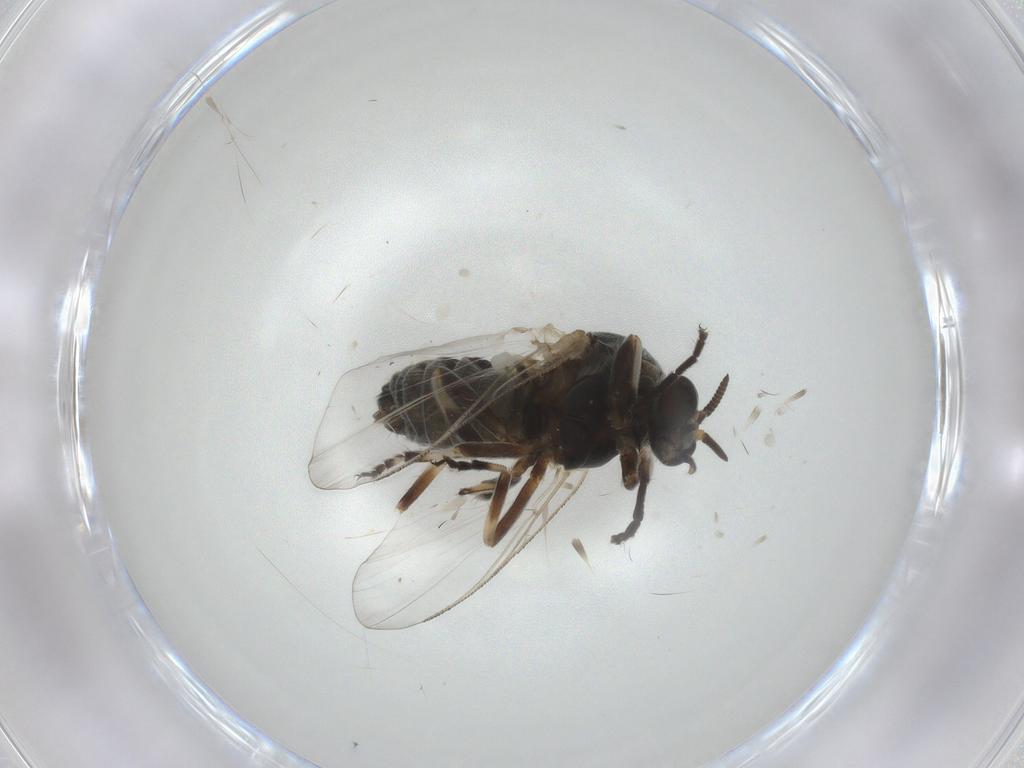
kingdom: Animalia
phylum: Arthropoda
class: Insecta
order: Diptera
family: Simuliidae
